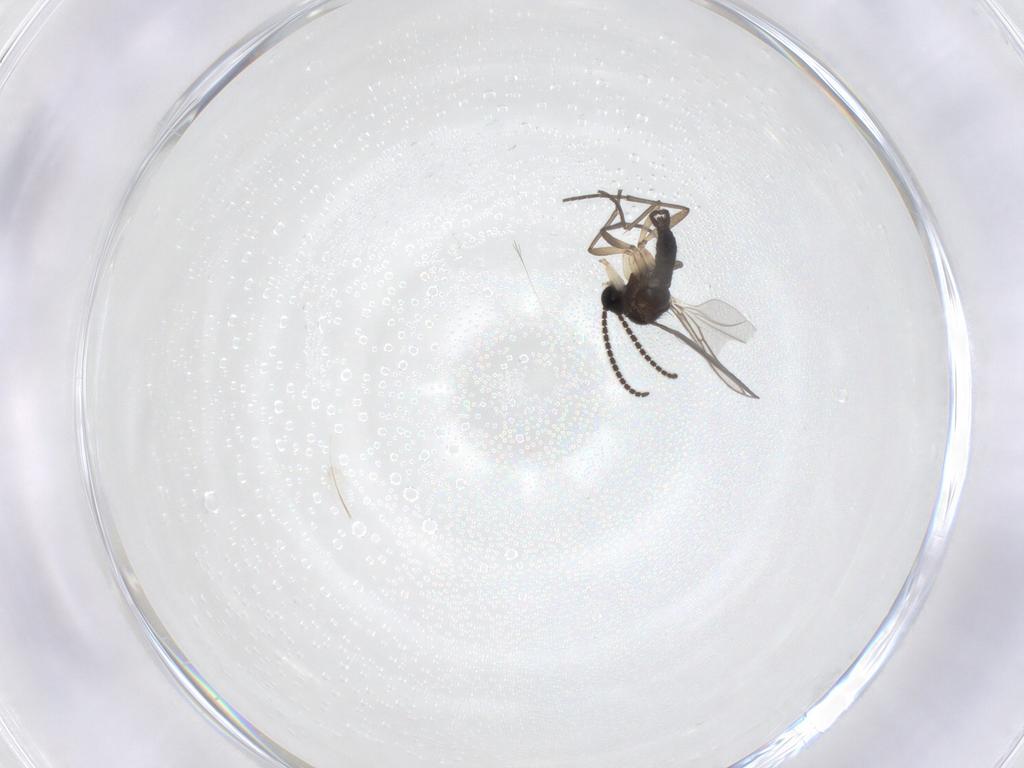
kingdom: Animalia
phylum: Arthropoda
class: Insecta
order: Diptera
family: Sciaridae
